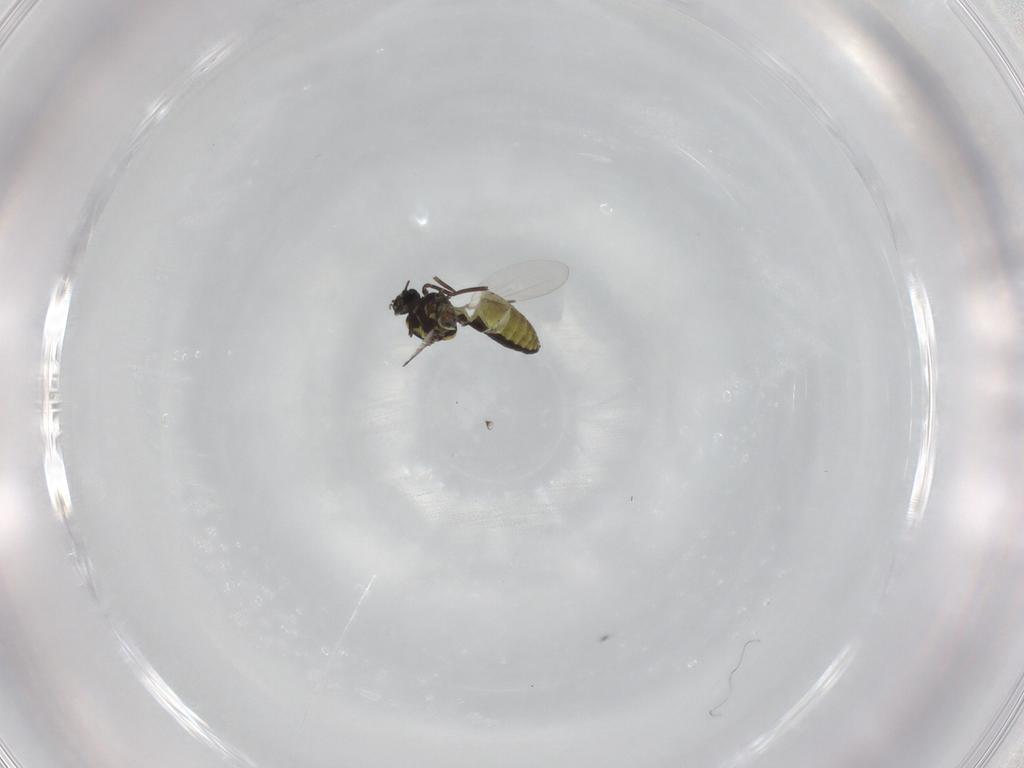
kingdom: Animalia
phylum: Arthropoda
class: Insecta
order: Diptera
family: Ceratopogonidae
